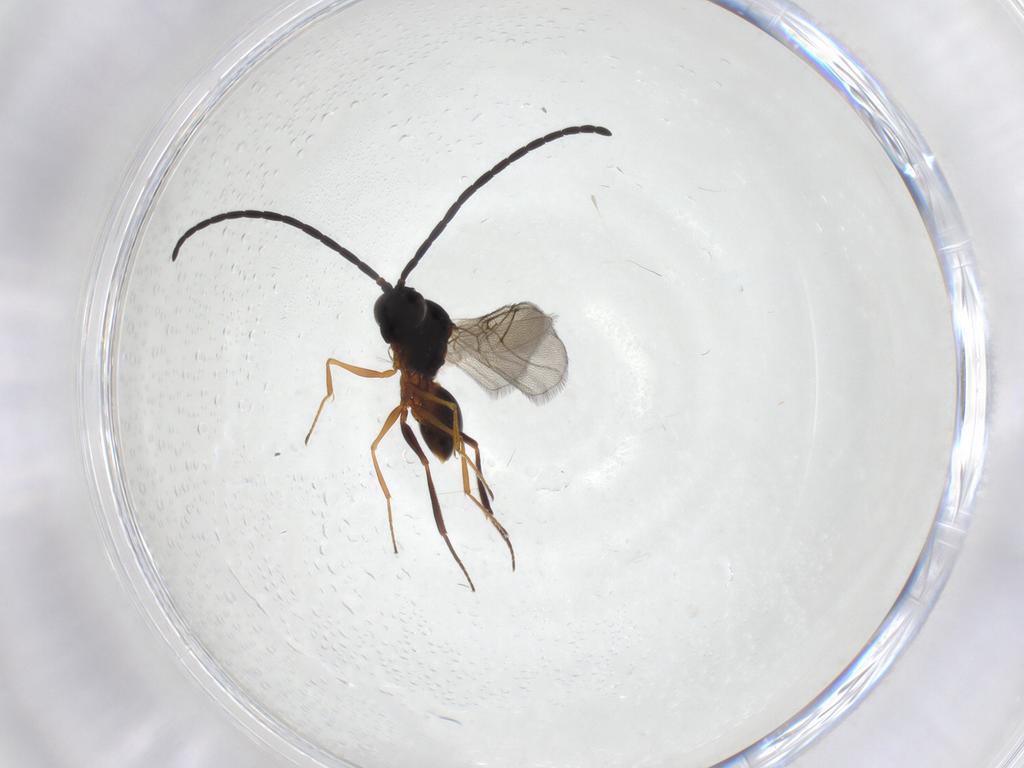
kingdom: Animalia
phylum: Arthropoda
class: Insecta
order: Hymenoptera
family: Figitidae
